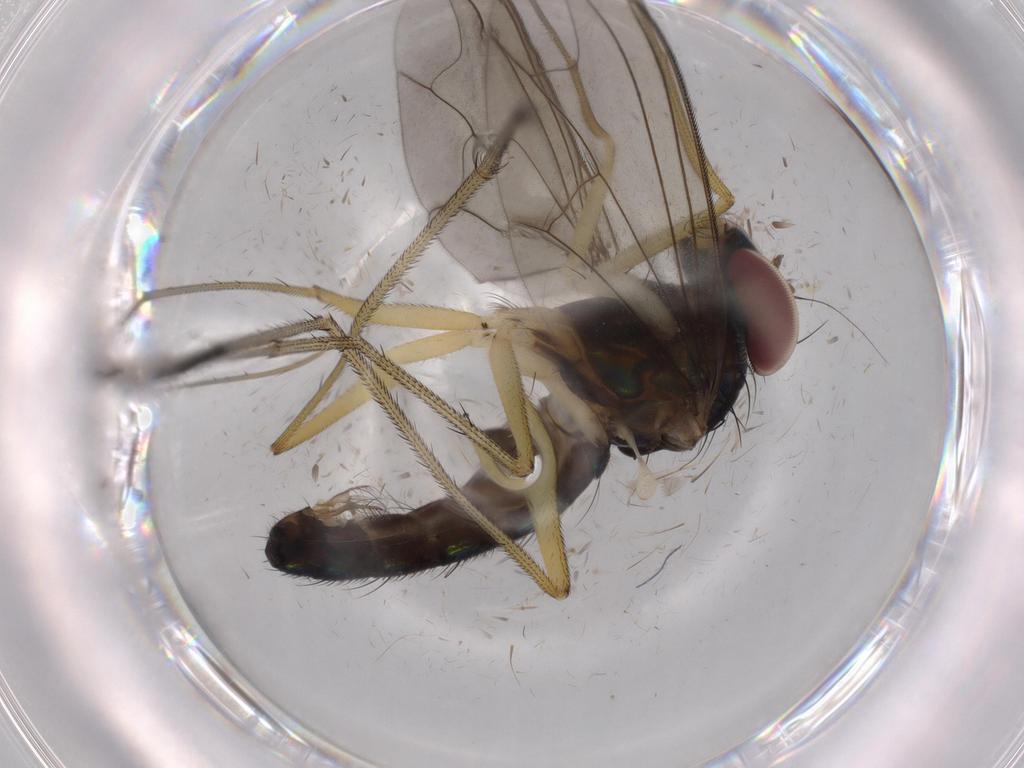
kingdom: Animalia
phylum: Arthropoda
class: Insecta
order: Diptera
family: Dolichopodidae
